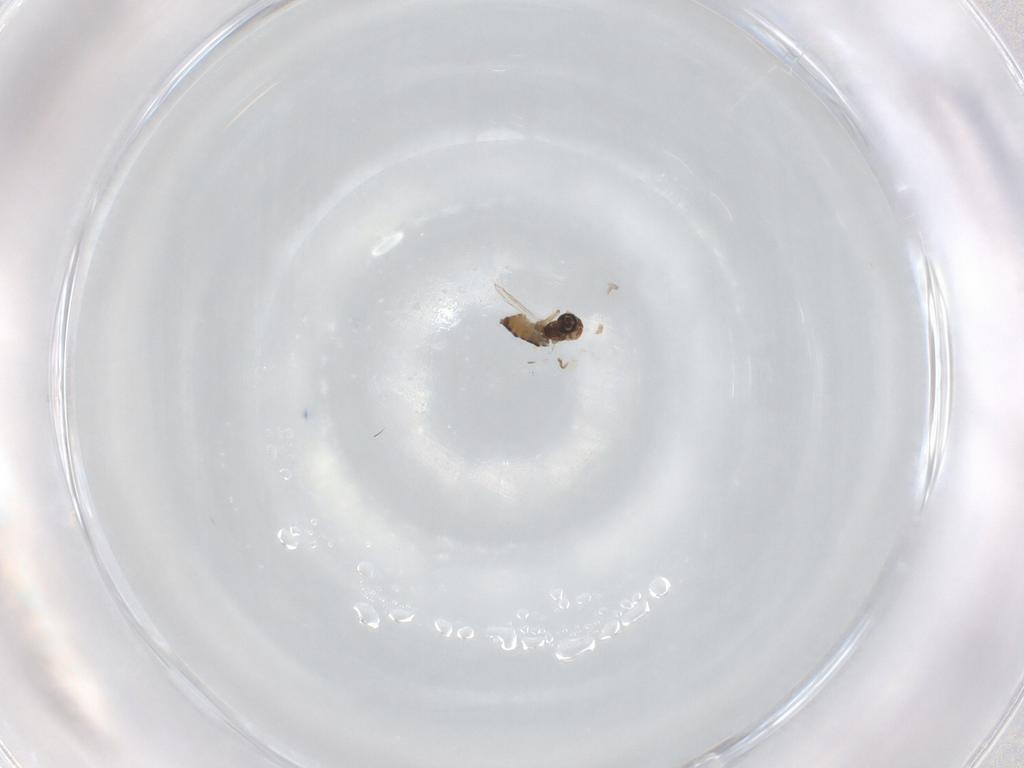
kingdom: Animalia
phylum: Arthropoda
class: Insecta
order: Diptera
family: Ceratopogonidae
